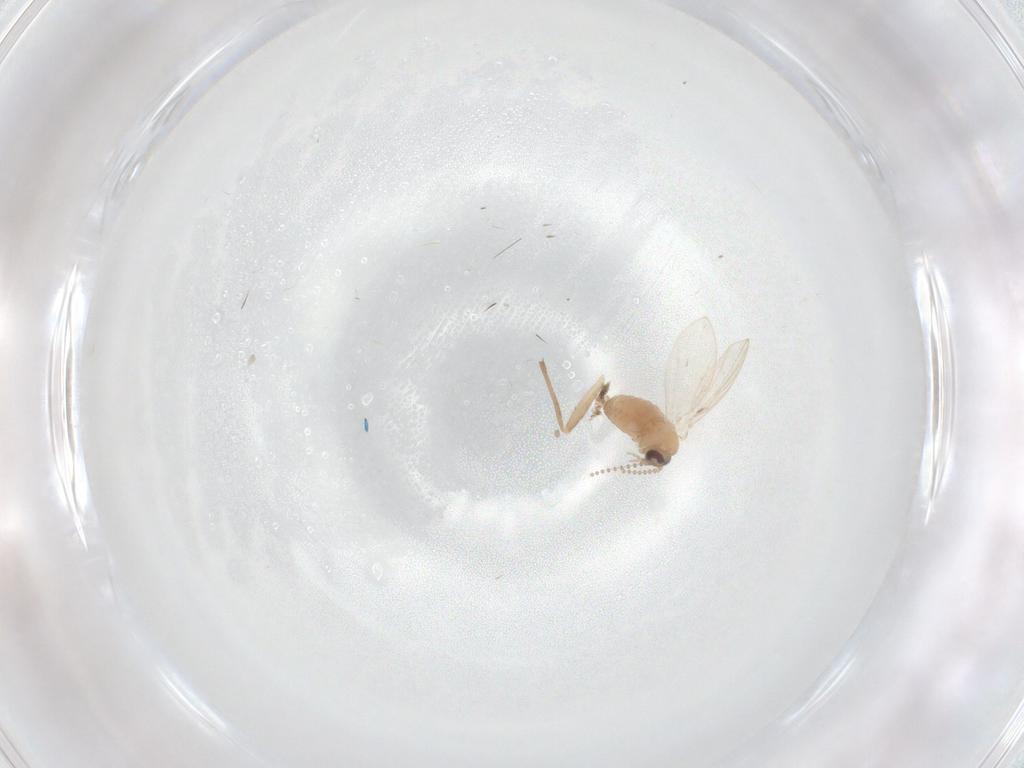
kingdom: Animalia
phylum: Arthropoda
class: Insecta
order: Diptera
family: Psychodidae
